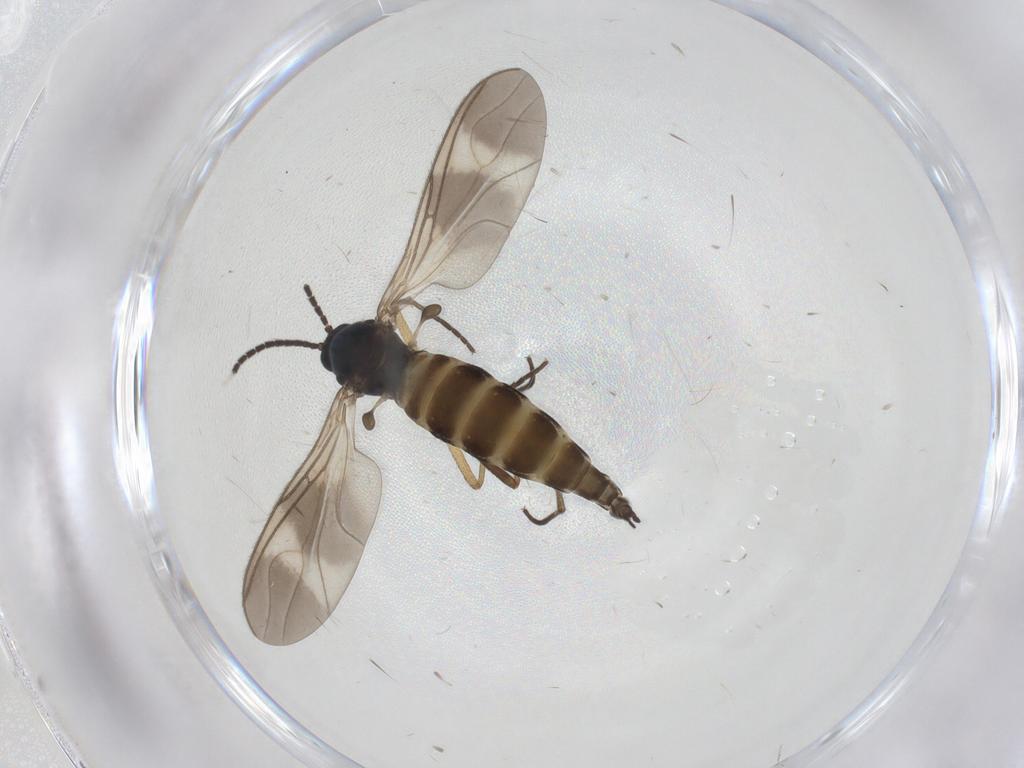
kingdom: Animalia
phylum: Arthropoda
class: Insecta
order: Diptera
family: Sciaridae
